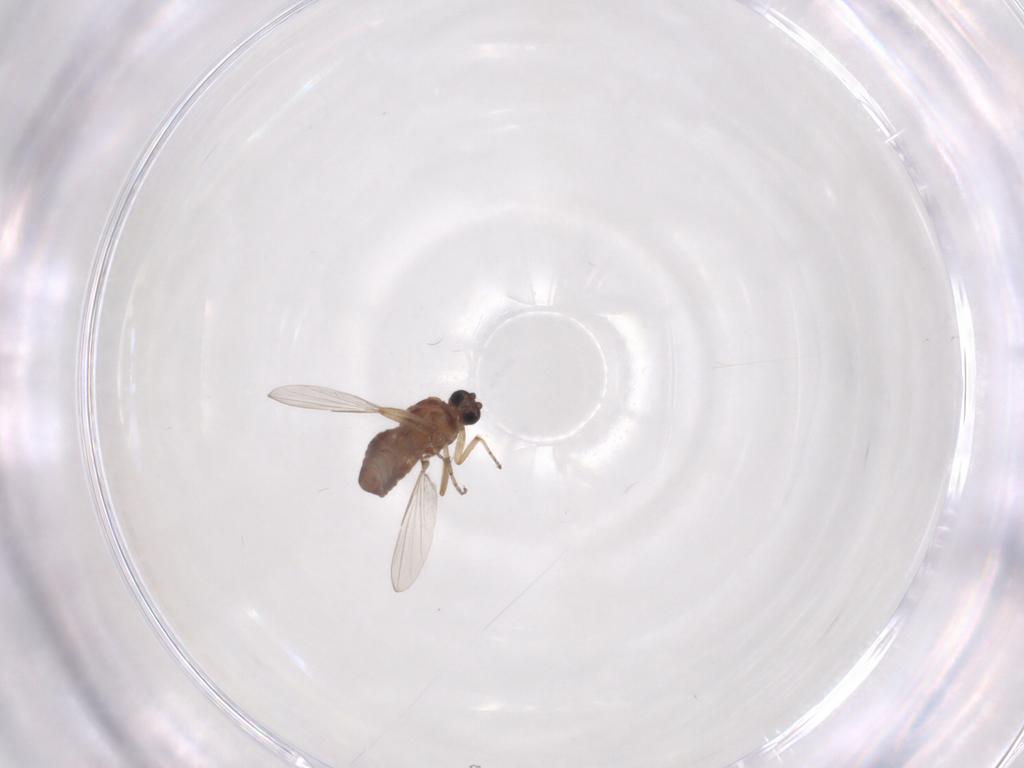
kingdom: Animalia
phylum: Arthropoda
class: Insecta
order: Diptera
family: Ceratopogonidae
